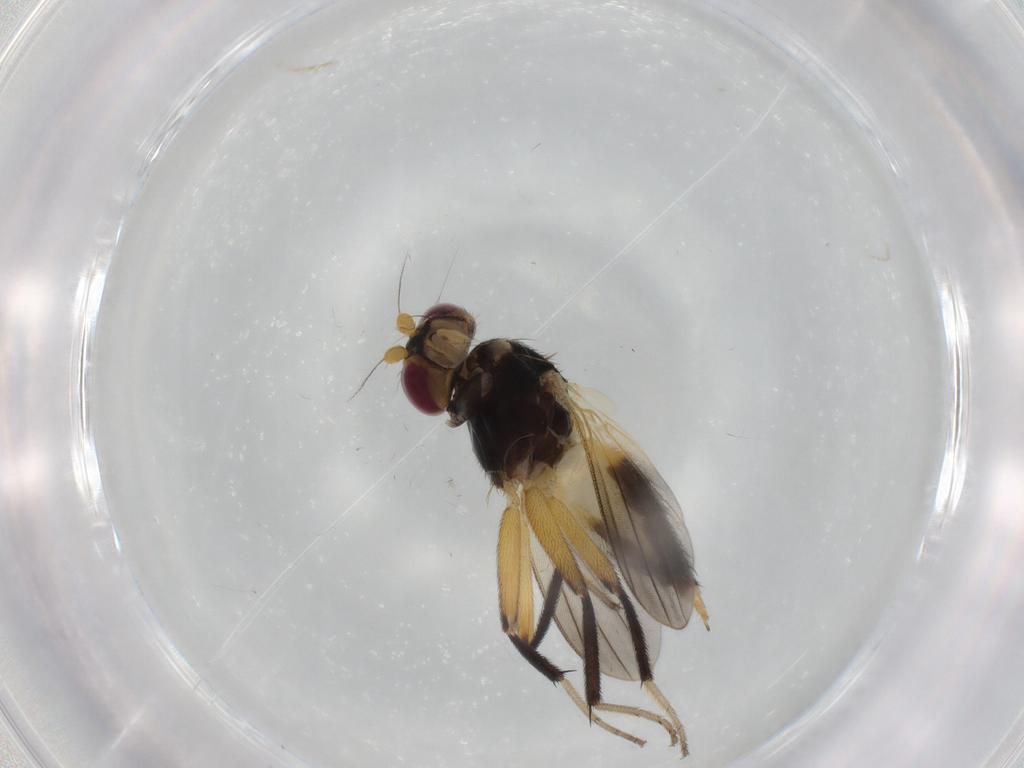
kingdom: Animalia
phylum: Arthropoda
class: Insecta
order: Diptera
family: Clusiidae
